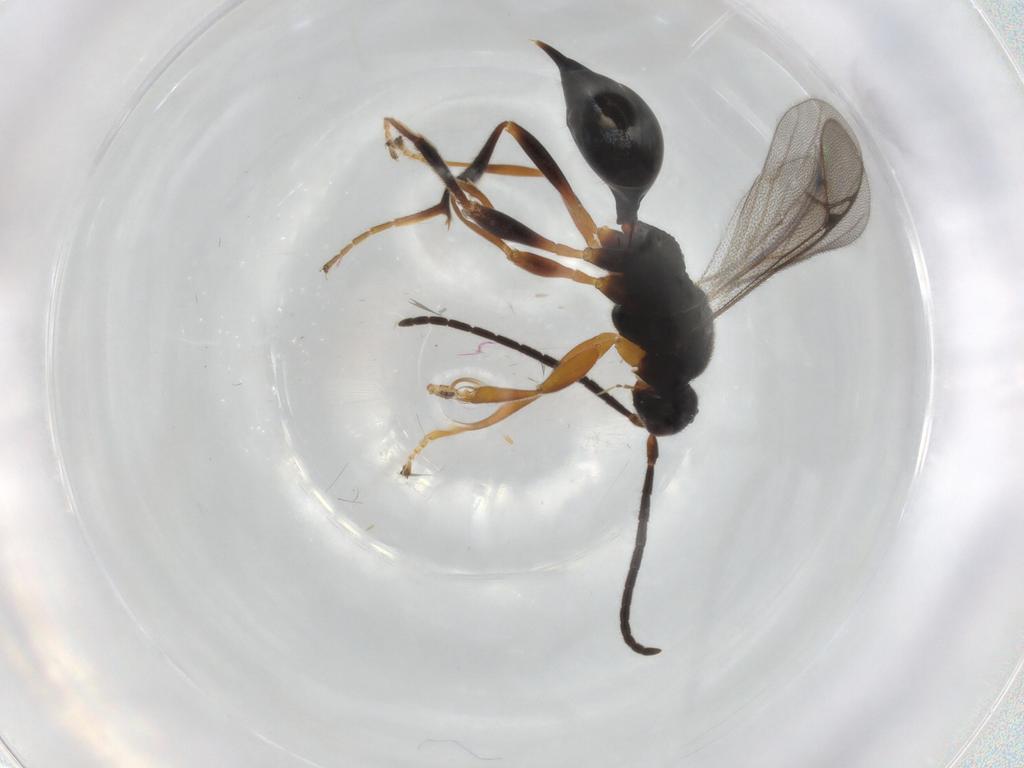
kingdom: Animalia
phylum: Arthropoda
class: Insecta
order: Hymenoptera
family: Proctotrupidae
